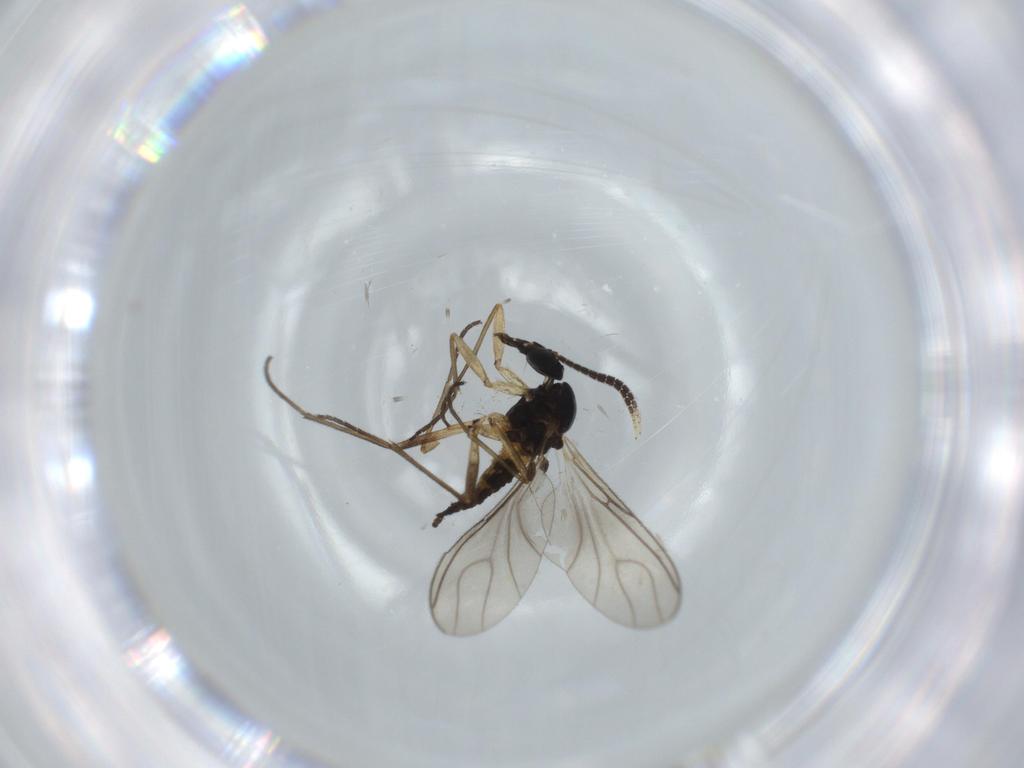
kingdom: Animalia
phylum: Arthropoda
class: Insecta
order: Diptera
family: Sciaridae
